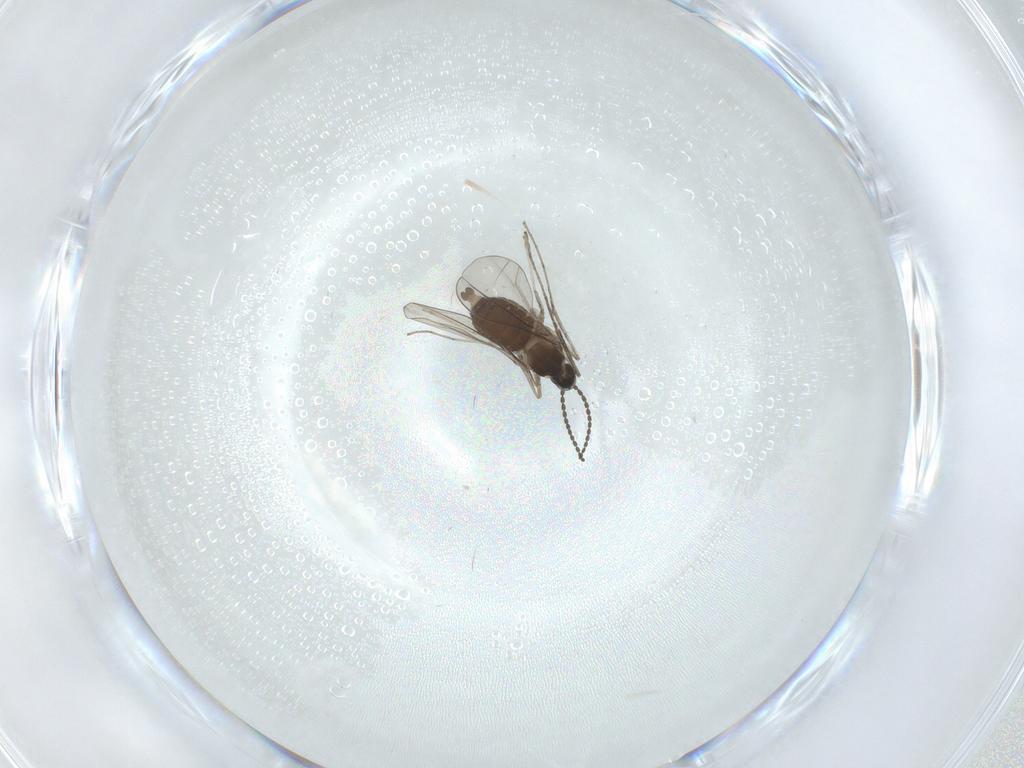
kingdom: Animalia
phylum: Arthropoda
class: Insecta
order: Diptera
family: Cecidomyiidae
